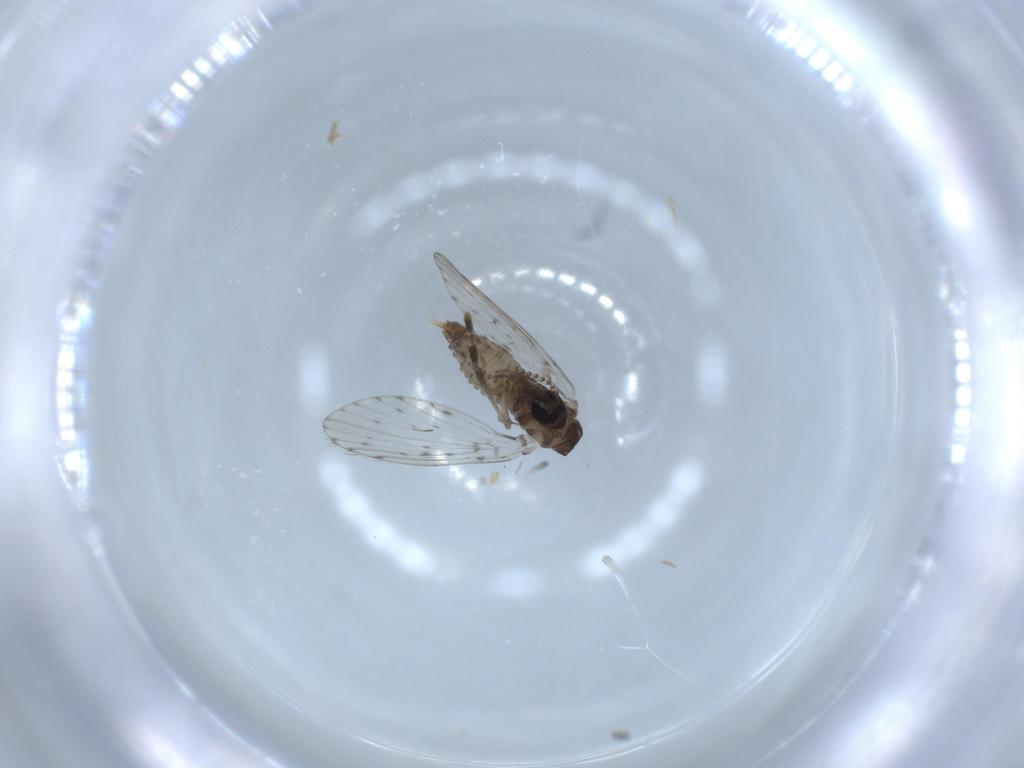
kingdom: Animalia
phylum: Arthropoda
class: Insecta
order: Diptera
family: Psychodidae
